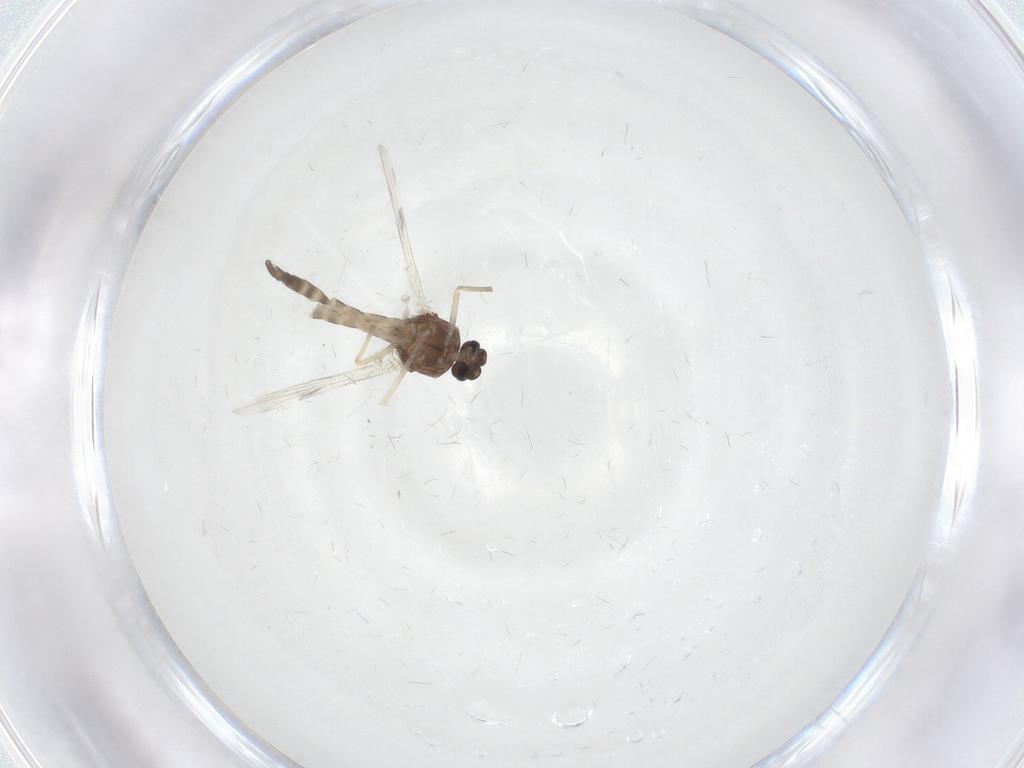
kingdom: Animalia
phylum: Arthropoda
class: Insecta
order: Diptera
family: Ceratopogonidae
